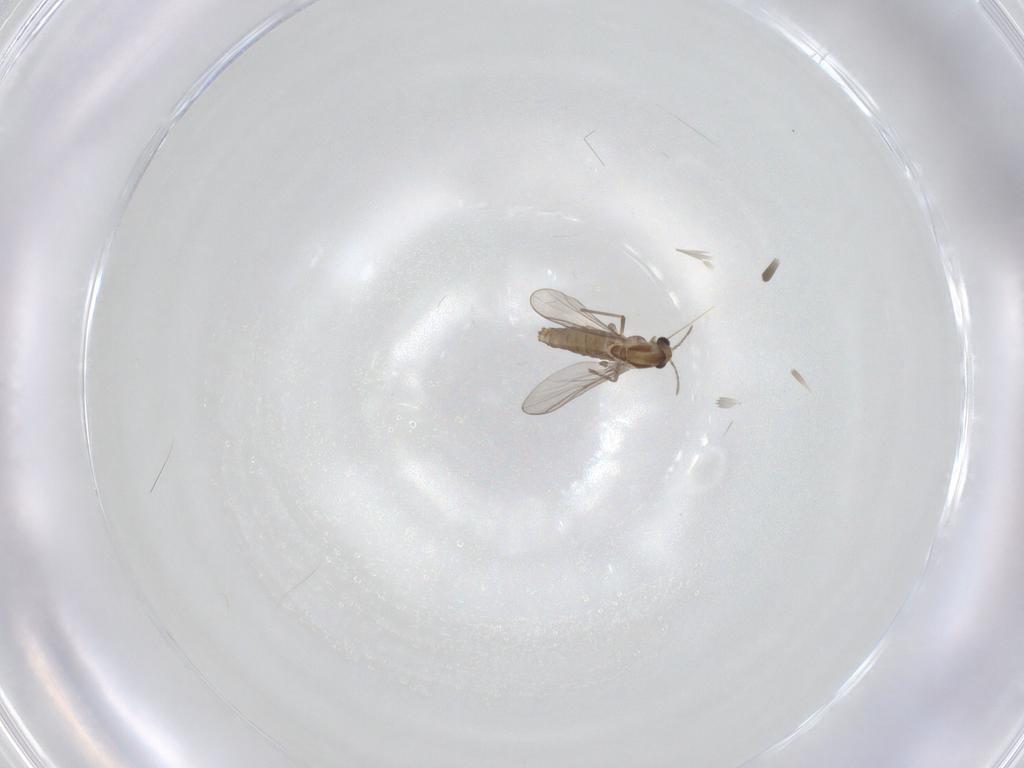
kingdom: Animalia
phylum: Arthropoda
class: Insecta
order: Diptera
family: Chironomidae
